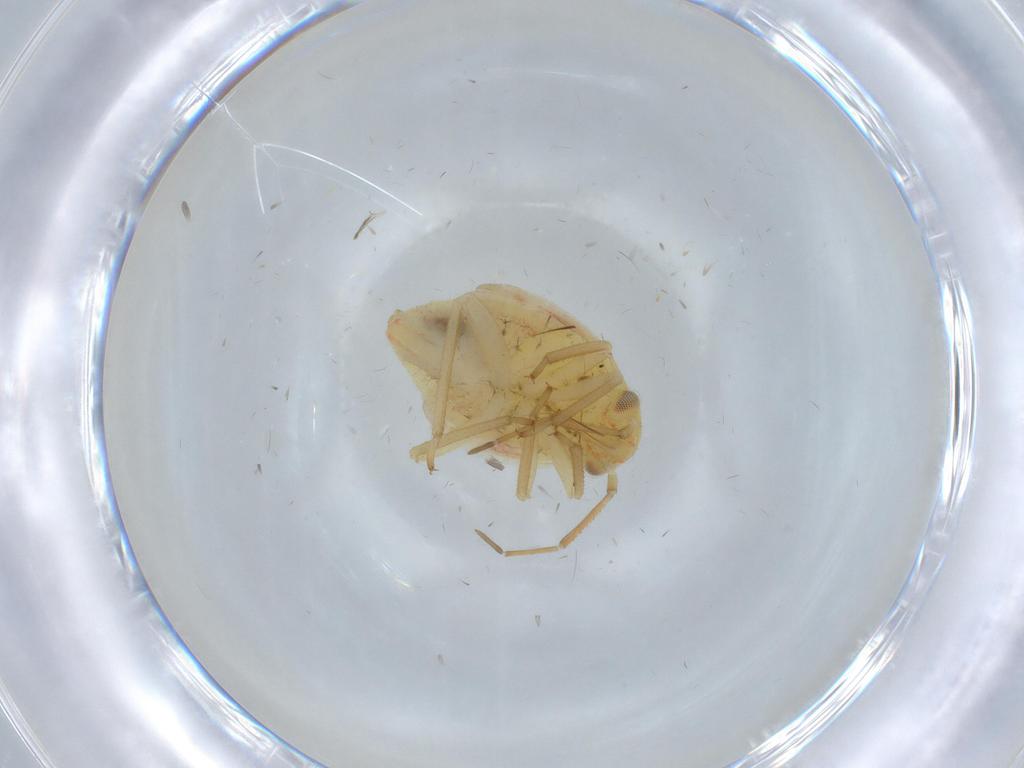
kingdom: Animalia
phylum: Arthropoda
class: Insecta
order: Hemiptera
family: Miridae
